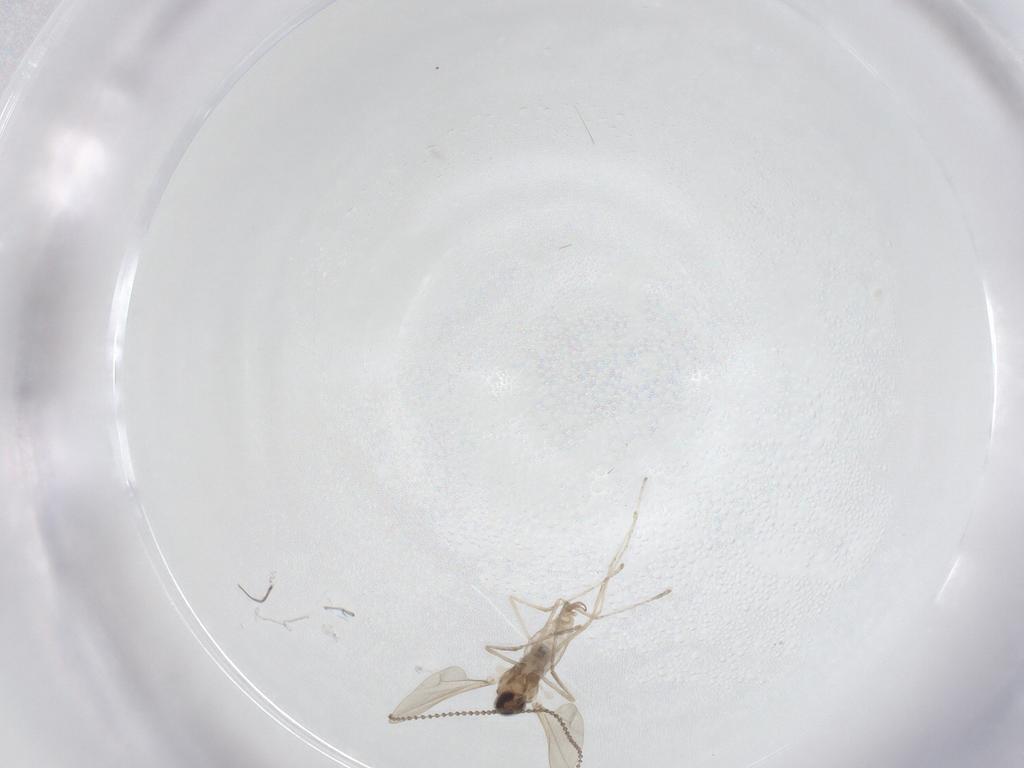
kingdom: Animalia
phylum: Arthropoda
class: Insecta
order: Diptera
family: Cecidomyiidae
